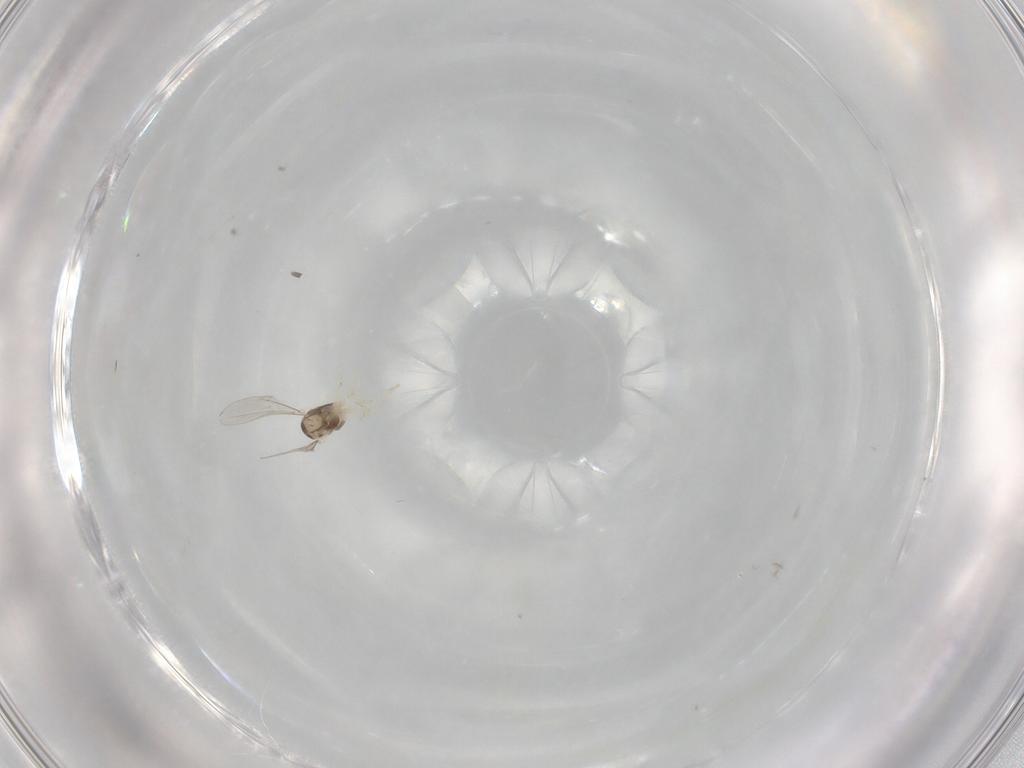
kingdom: Animalia
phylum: Arthropoda
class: Insecta
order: Diptera
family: Cecidomyiidae
